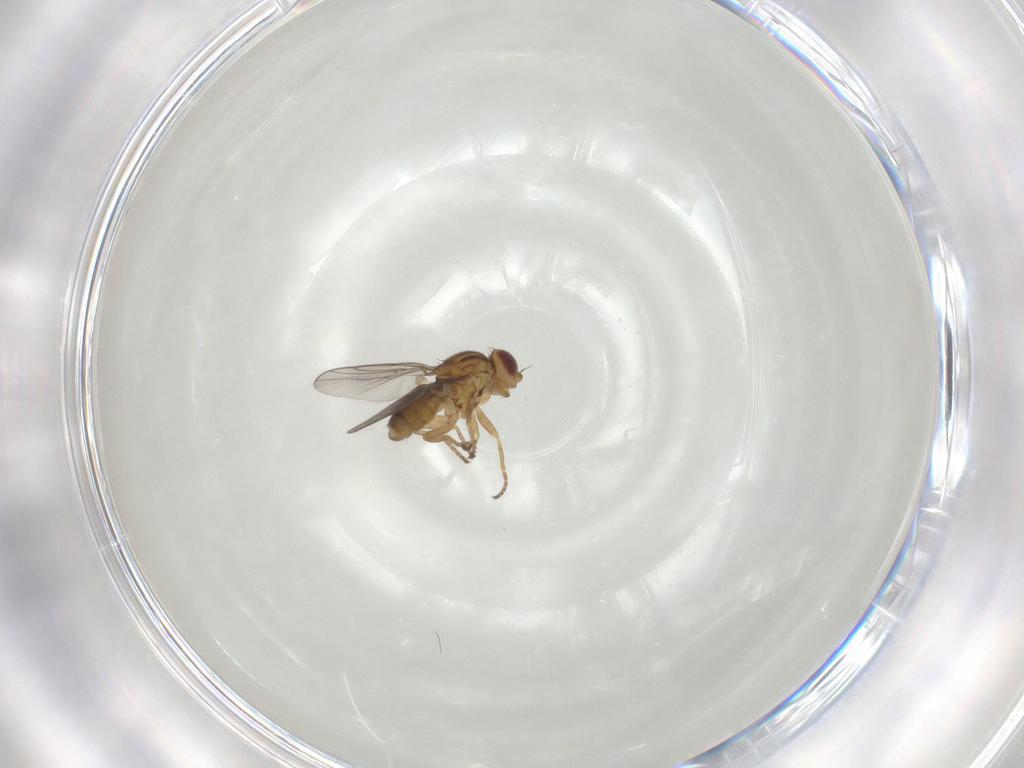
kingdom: Animalia
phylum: Arthropoda
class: Insecta
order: Diptera
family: Chloropidae
